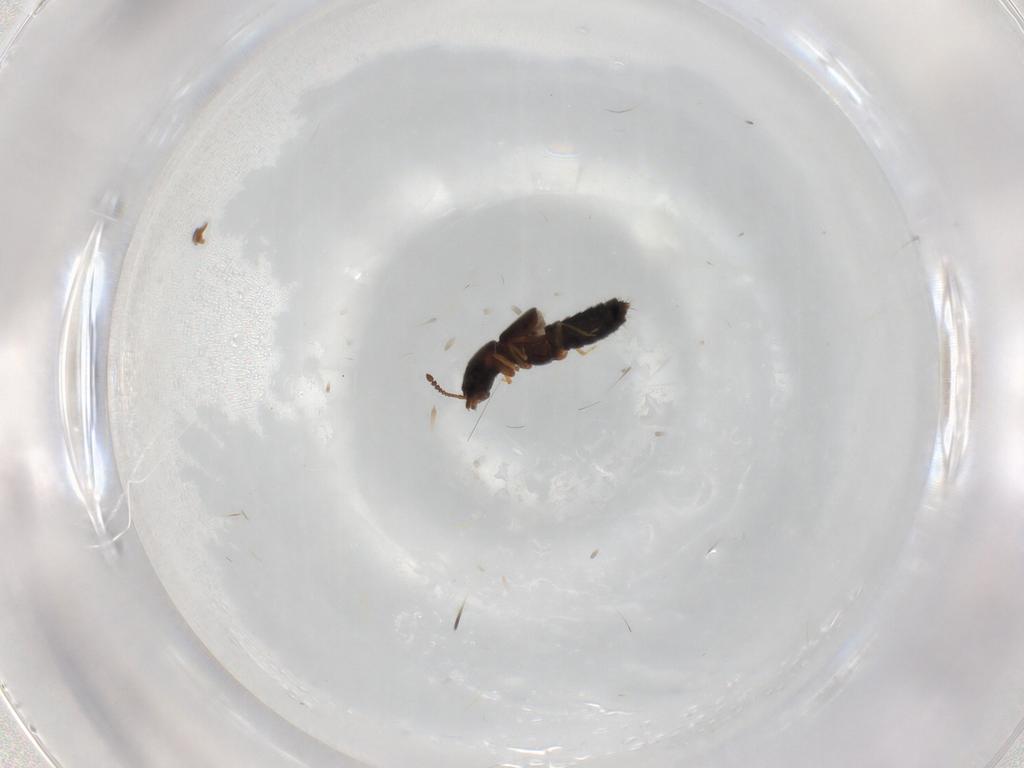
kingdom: Animalia
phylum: Arthropoda
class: Insecta
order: Coleoptera
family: Staphylinidae
